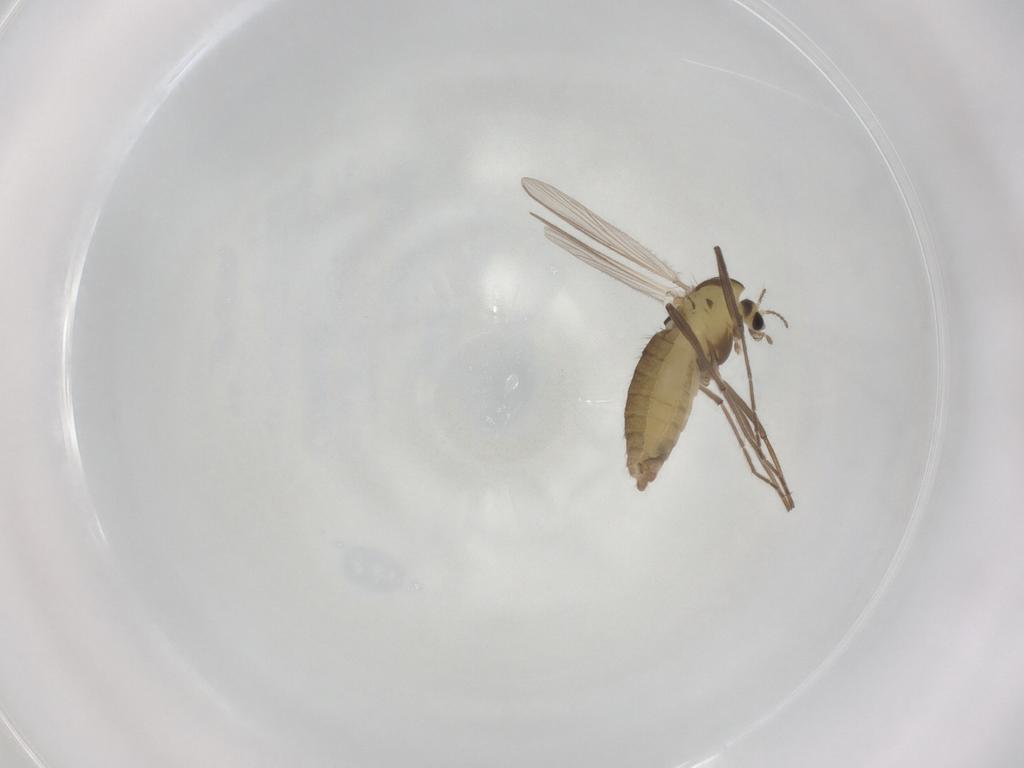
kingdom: Animalia
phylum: Arthropoda
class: Insecta
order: Diptera
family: Chironomidae
